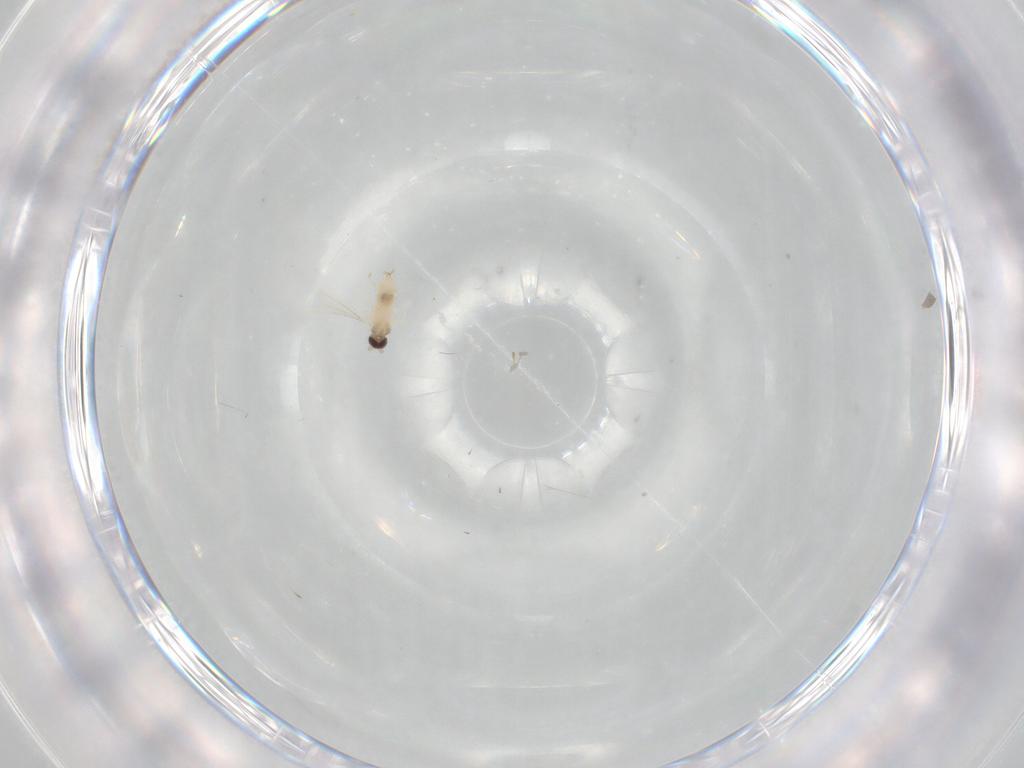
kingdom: Animalia
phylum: Arthropoda
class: Insecta
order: Diptera
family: Cecidomyiidae
